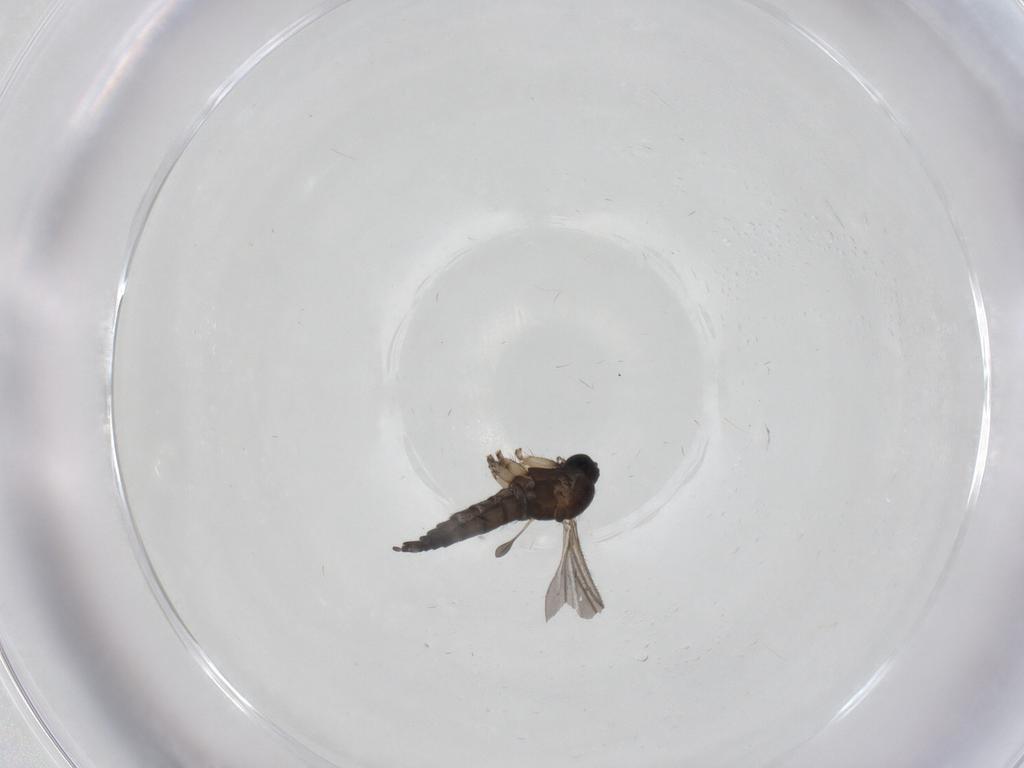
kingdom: Animalia
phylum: Arthropoda
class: Insecta
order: Diptera
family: Sciaridae
